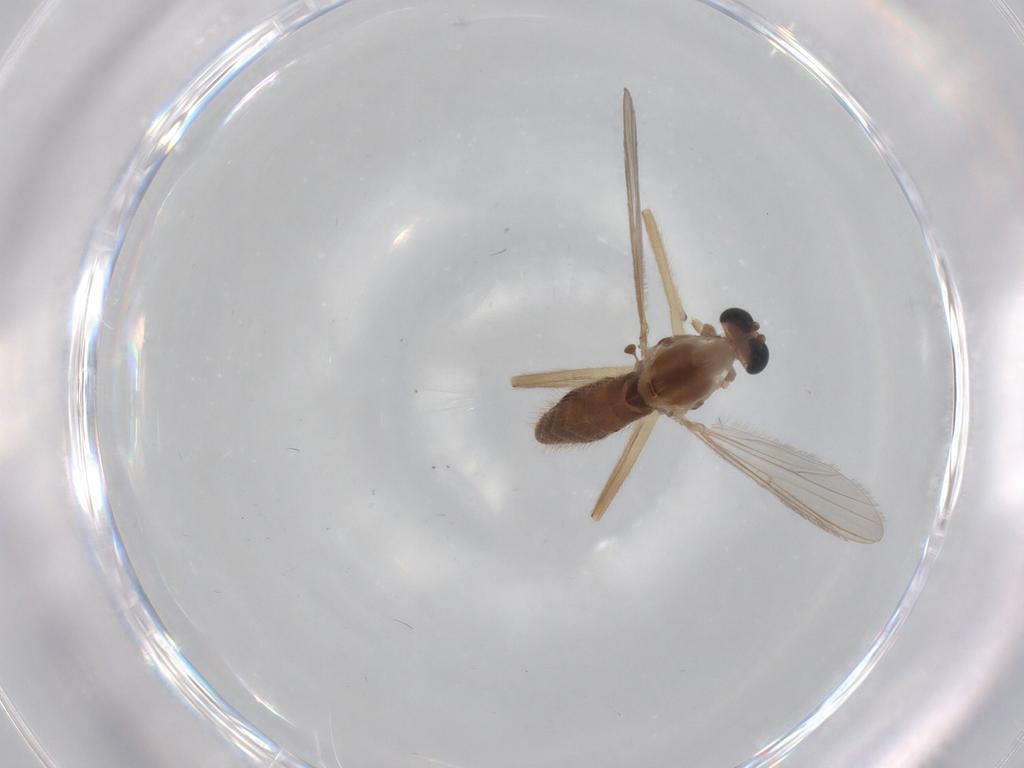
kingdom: Animalia
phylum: Arthropoda
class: Insecta
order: Diptera
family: Chironomidae
